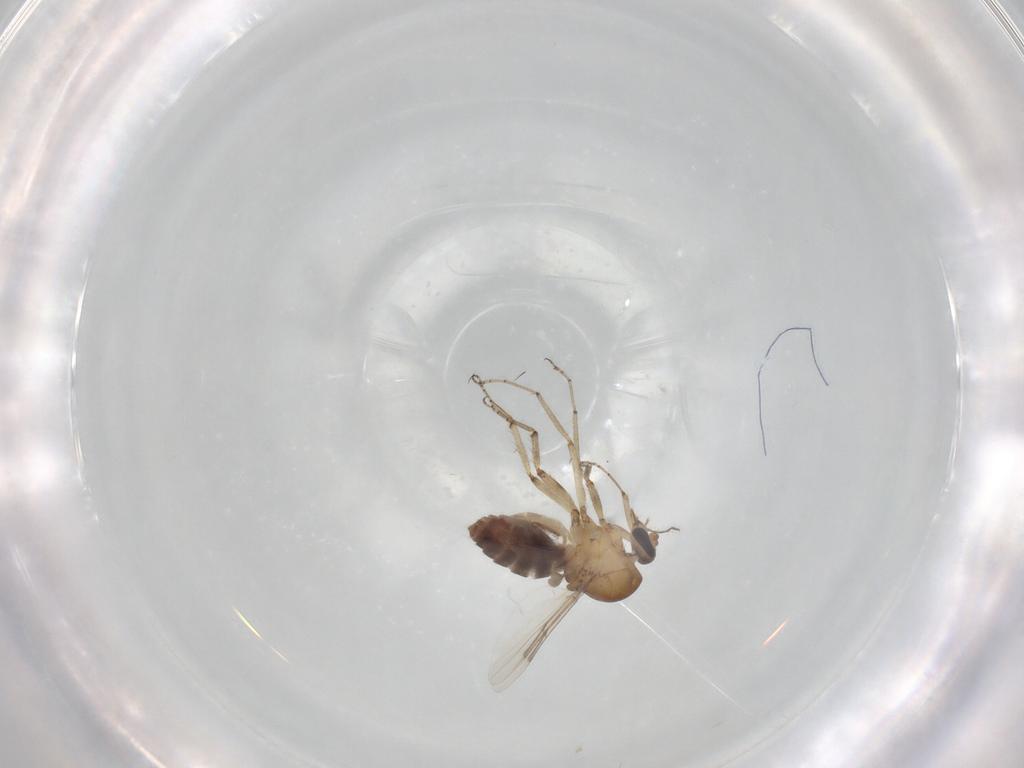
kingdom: Animalia
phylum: Arthropoda
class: Insecta
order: Diptera
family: Ceratopogonidae
